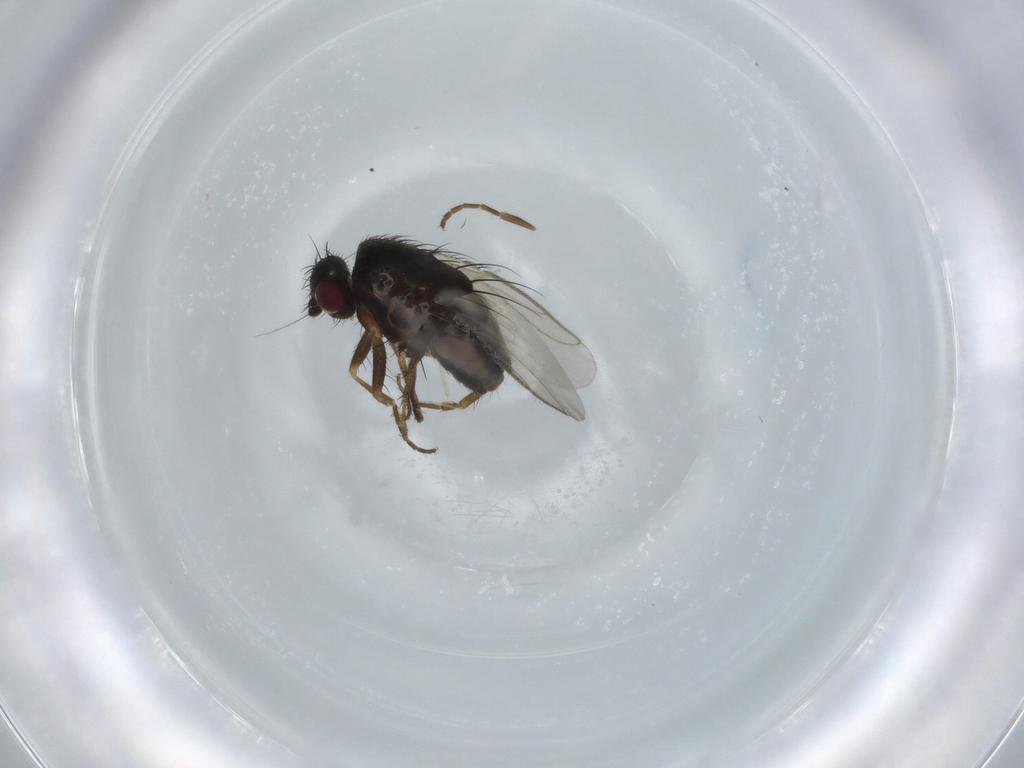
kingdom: Animalia
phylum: Arthropoda
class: Insecta
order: Diptera
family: Sphaeroceridae
